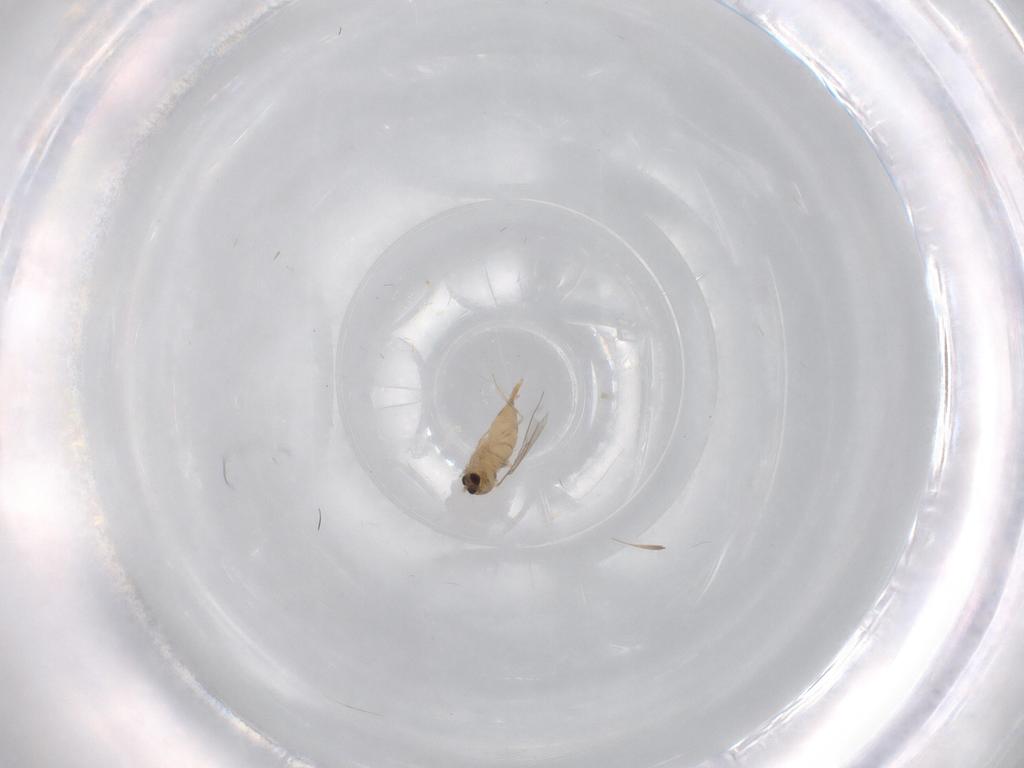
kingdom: Animalia
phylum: Arthropoda
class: Insecta
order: Diptera
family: Cecidomyiidae
